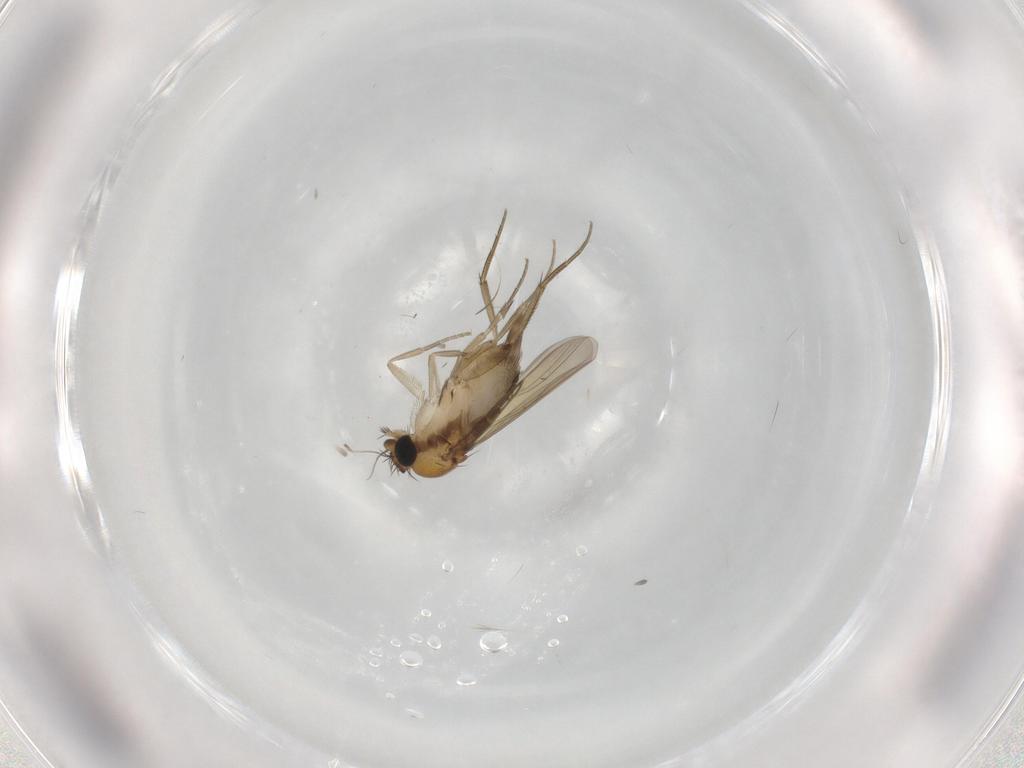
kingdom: Animalia
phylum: Arthropoda
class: Insecta
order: Diptera
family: Phoridae
